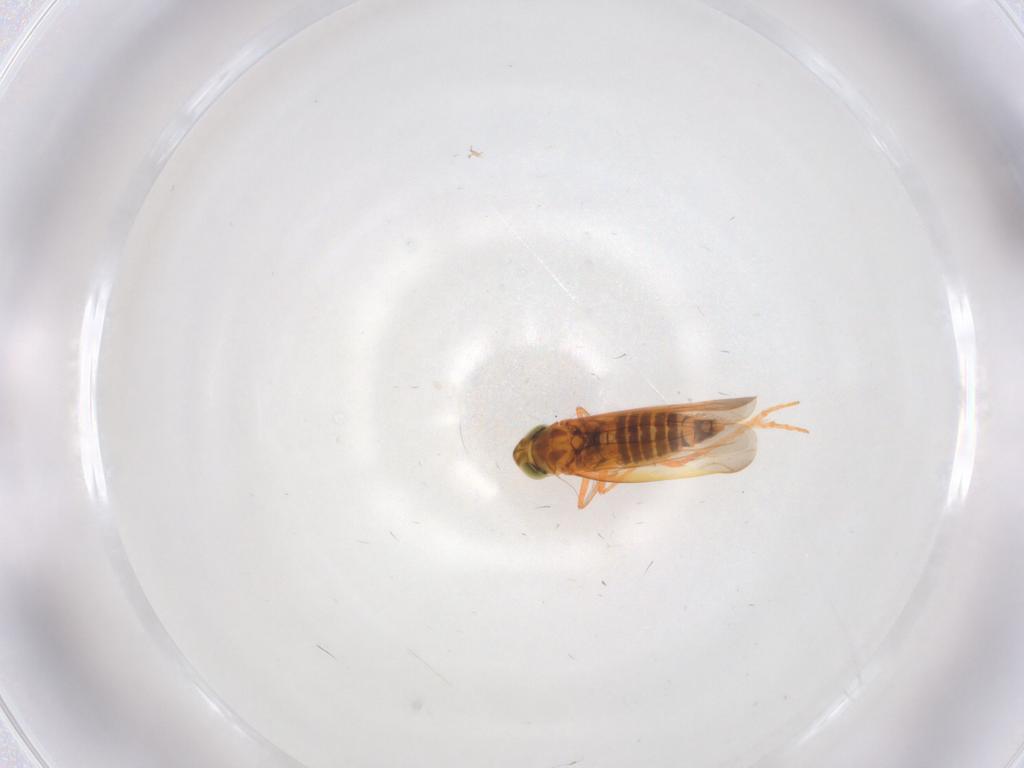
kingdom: Animalia
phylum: Arthropoda
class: Insecta
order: Hemiptera
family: Cicadellidae
